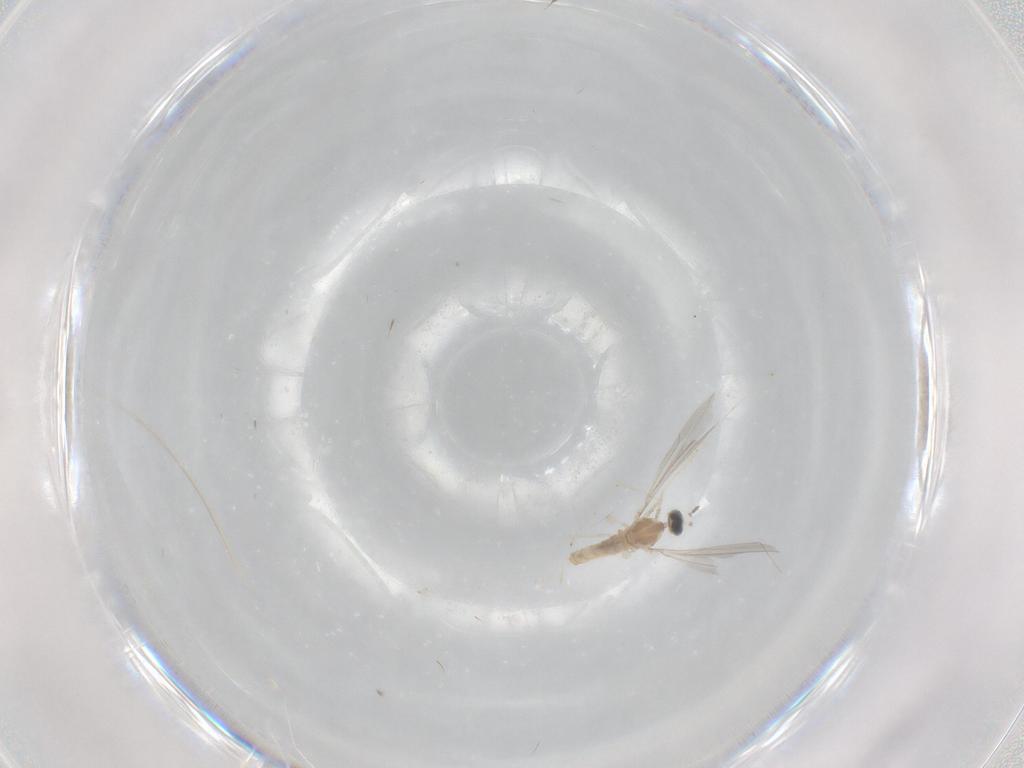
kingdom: Animalia
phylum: Arthropoda
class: Insecta
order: Diptera
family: Cecidomyiidae
